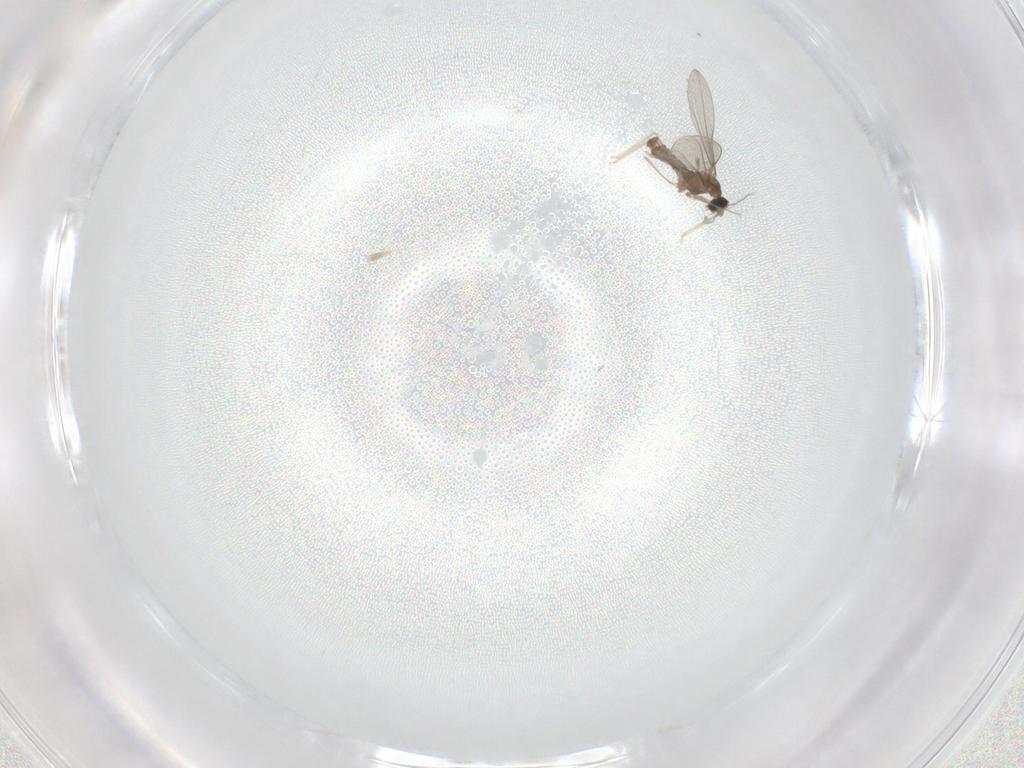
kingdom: Animalia
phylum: Arthropoda
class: Insecta
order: Diptera
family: Cecidomyiidae
